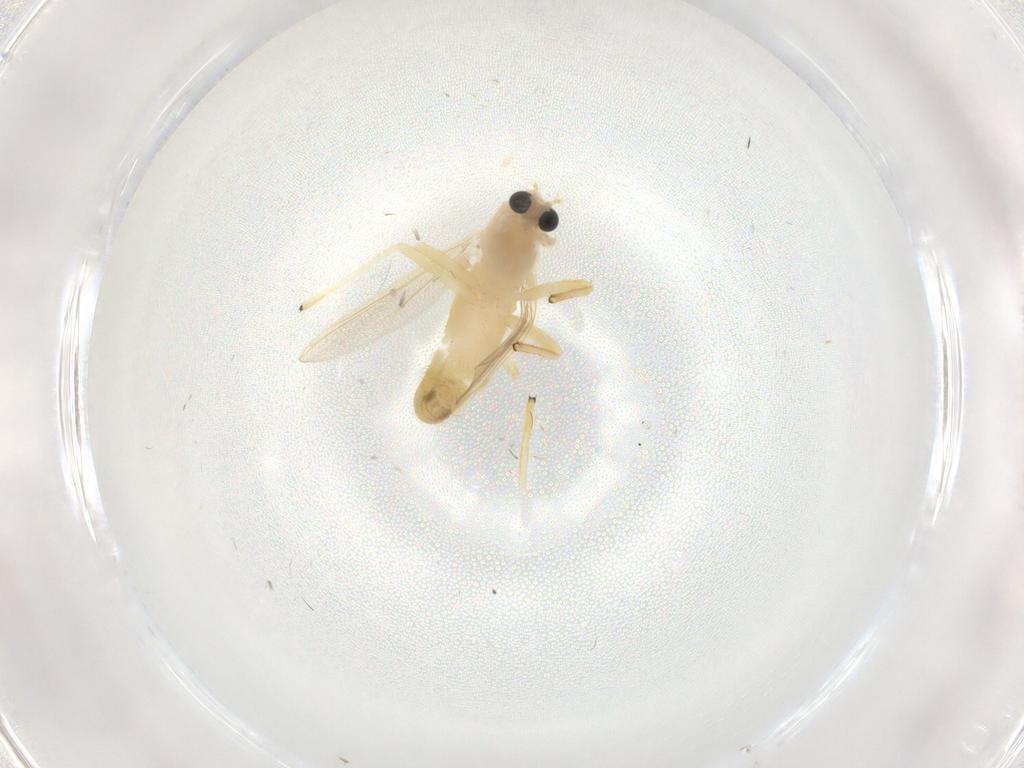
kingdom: Animalia
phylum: Arthropoda
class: Insecta
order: Diptera
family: Chironomidae
